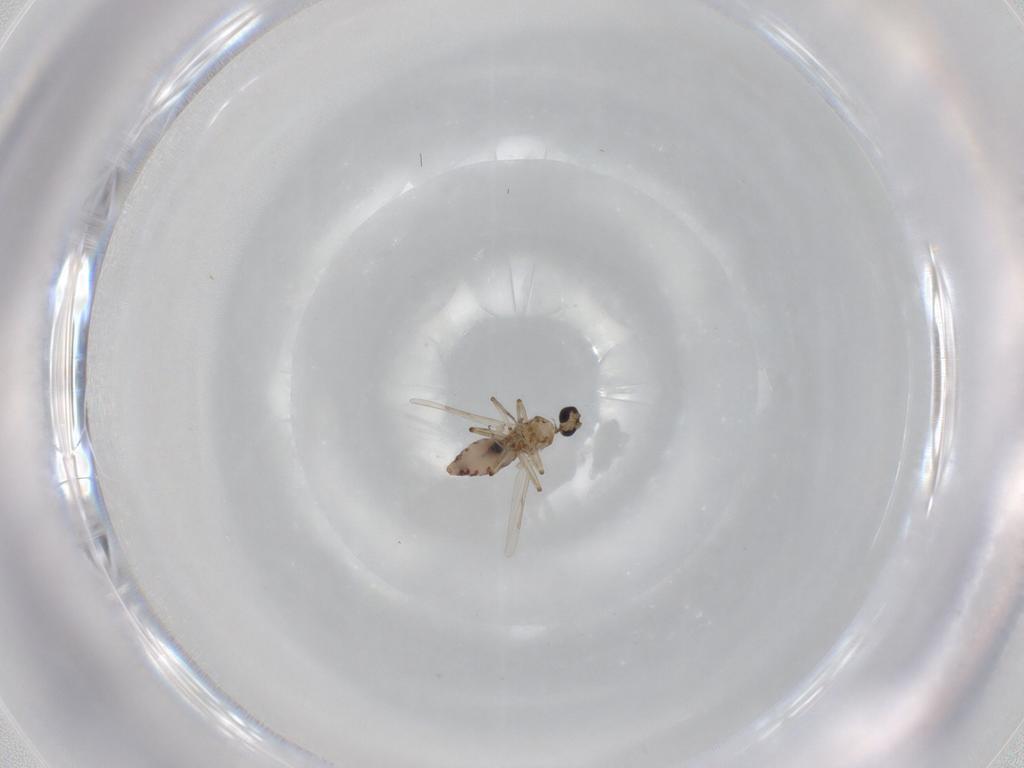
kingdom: Animalia
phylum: Arthropoda
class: Insecta
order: Diptera
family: Ceratopogonidae
